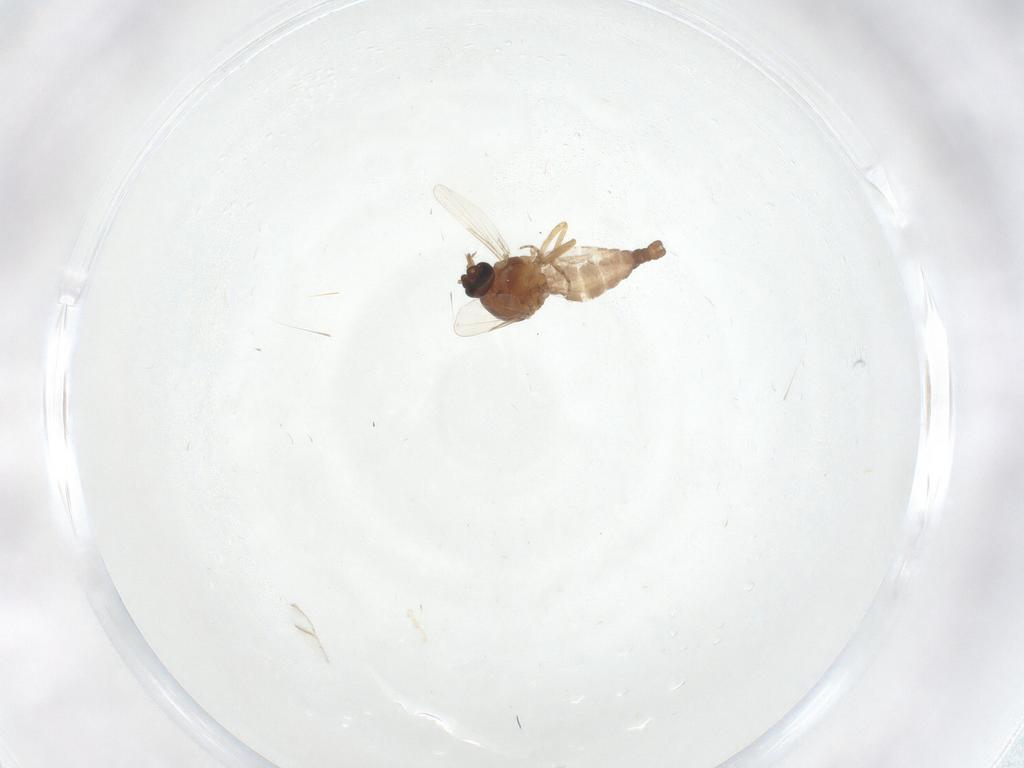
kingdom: Animalia
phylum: Arthropoda
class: Insecta
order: Diptera
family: Ceratopogonidae
